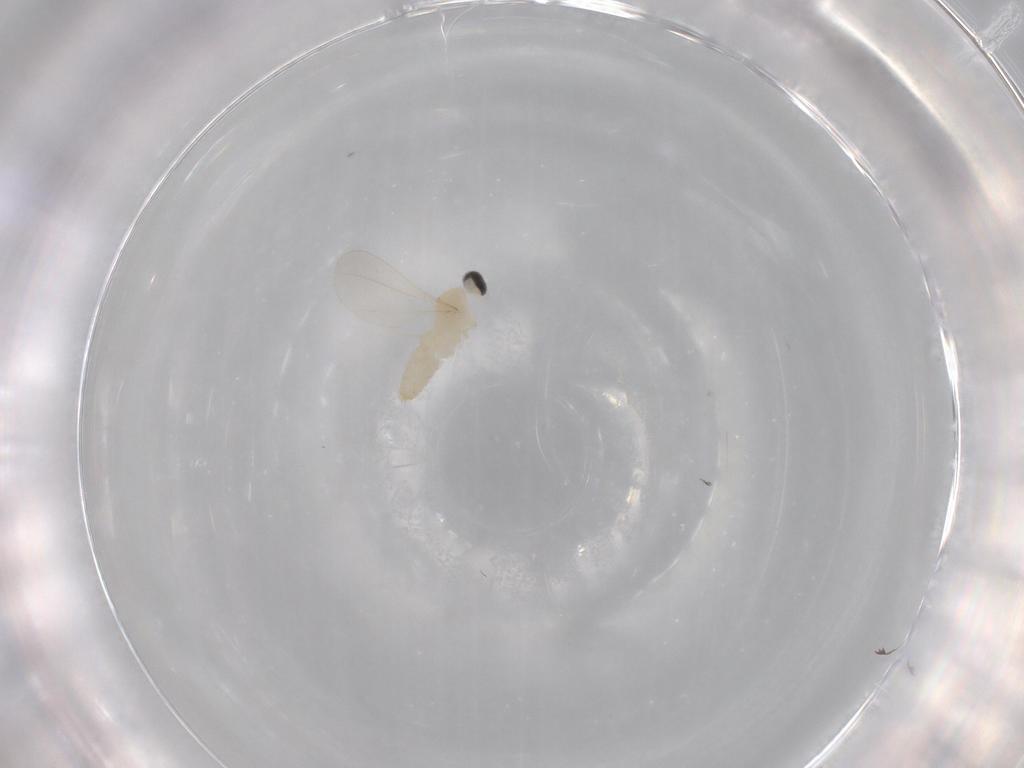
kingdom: Animalia
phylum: Arthropoda
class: Insecta
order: Diptera
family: Cecidomyiidae
